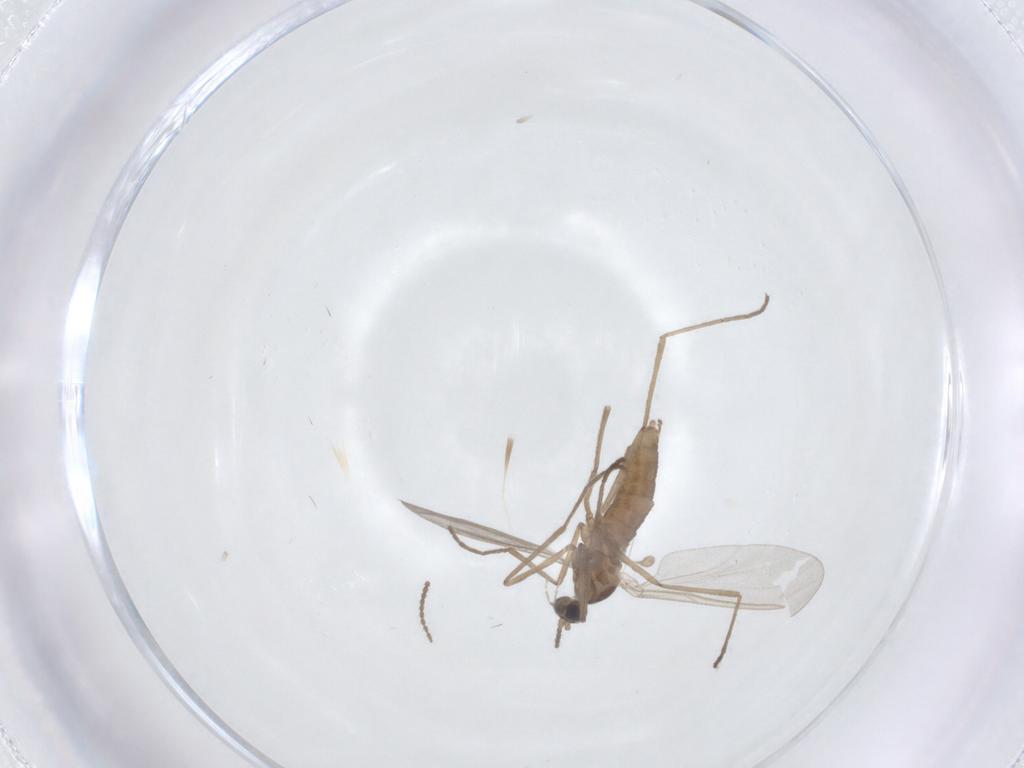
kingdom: Animalia
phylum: Arthropoda
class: Insecta
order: Diptera
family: Cecidomyiidae
